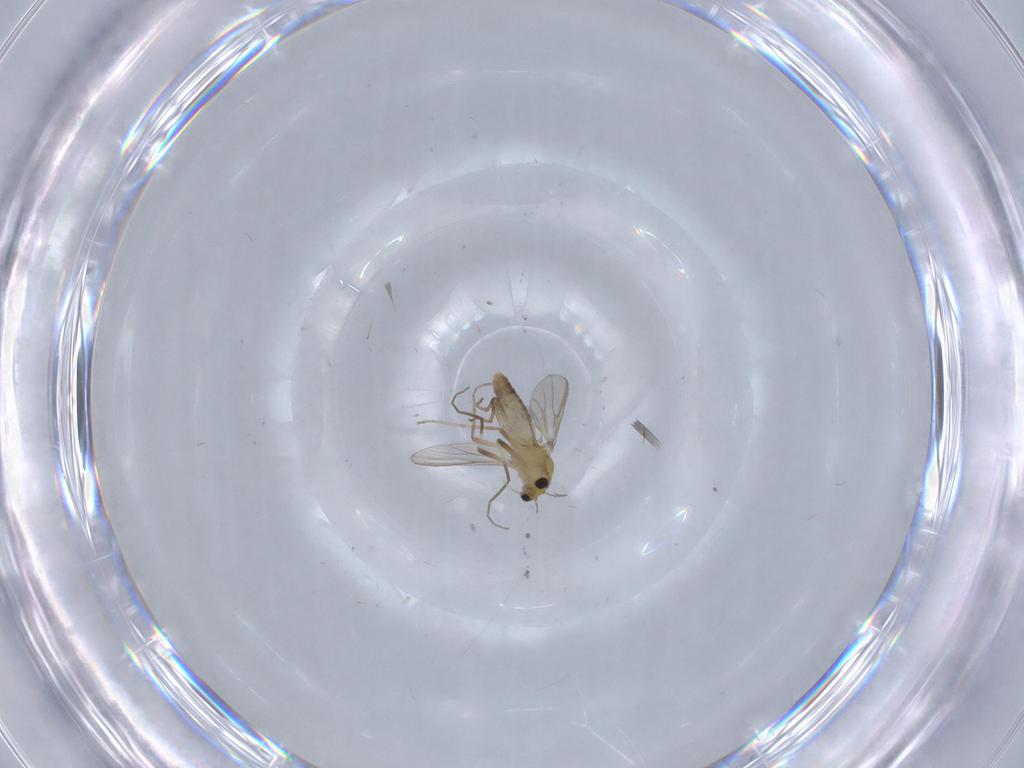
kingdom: Animalia
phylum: Arthropoda
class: Insecta
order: Diptera
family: Chironomidae
